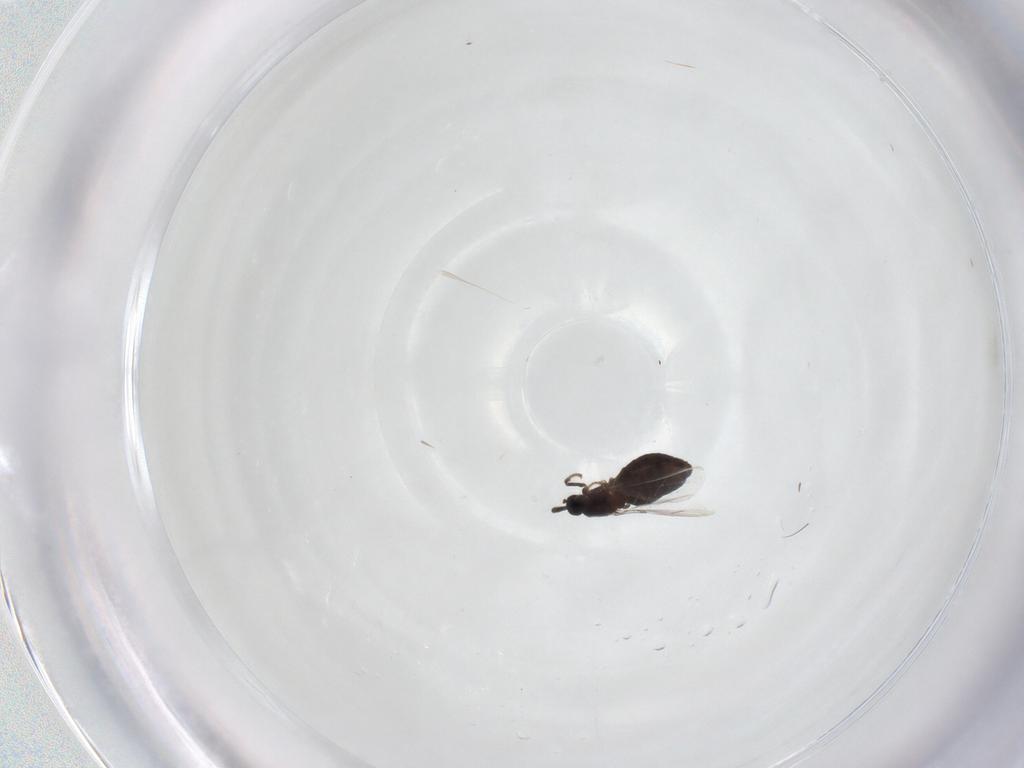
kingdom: Animalia
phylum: Arthropoda
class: Insecta
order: Diptera
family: Scatopsidae
